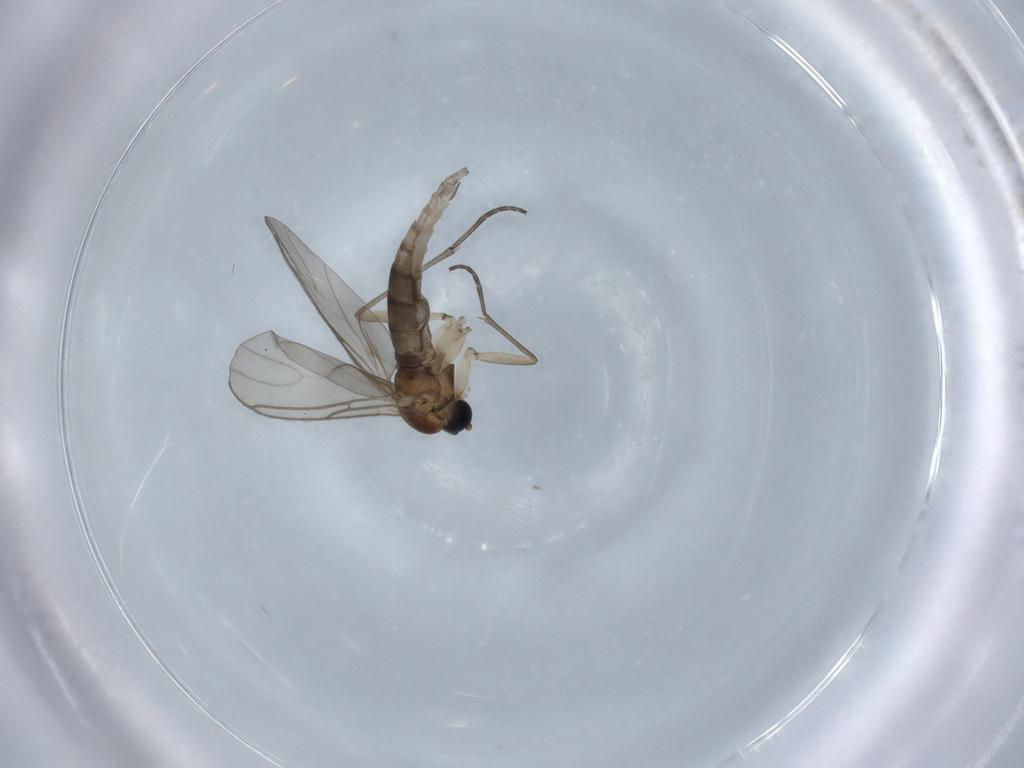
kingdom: Animalia
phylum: Arthropoda
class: Insecta
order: Diptera
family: Sciaridae
